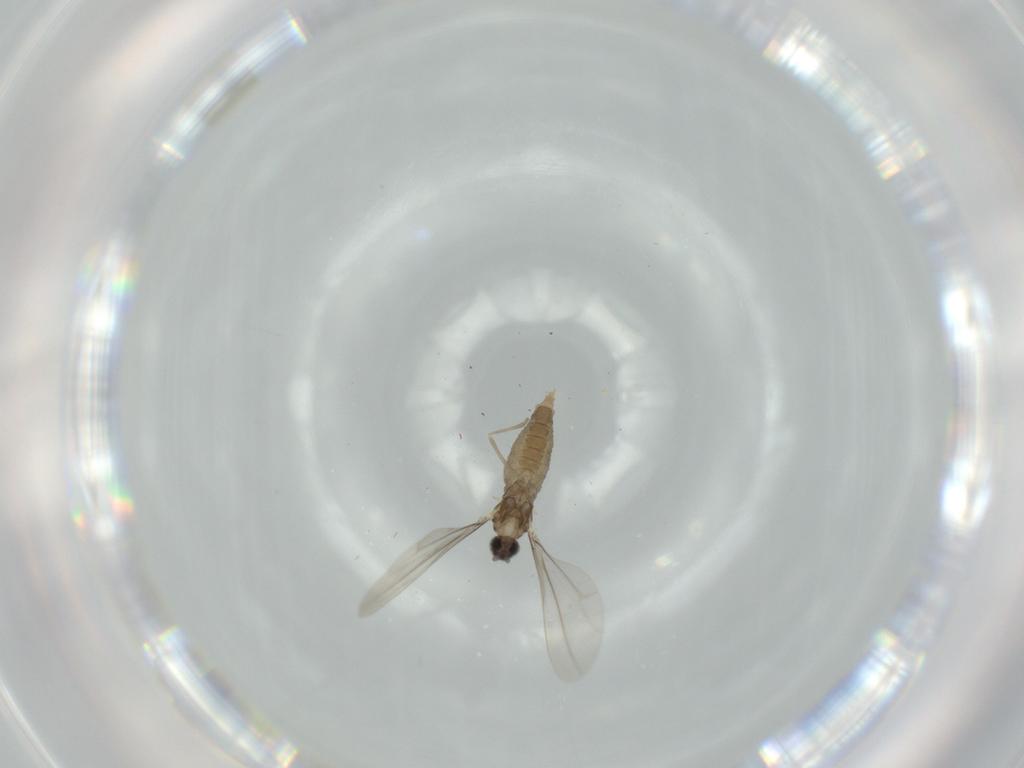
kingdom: Animalia
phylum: Arthropoda
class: Insecta
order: Diptera
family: Cecidomyiidae
